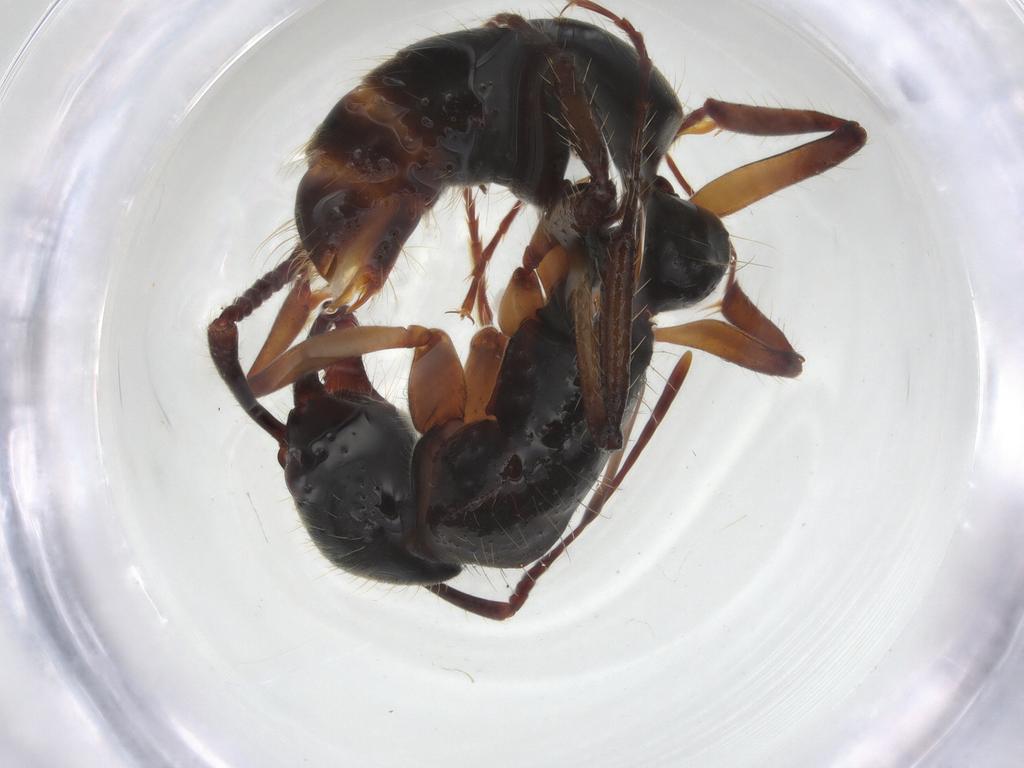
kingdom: Animalia
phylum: Arthropoda
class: Insecta
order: Hymenoptera
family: Formicidae
